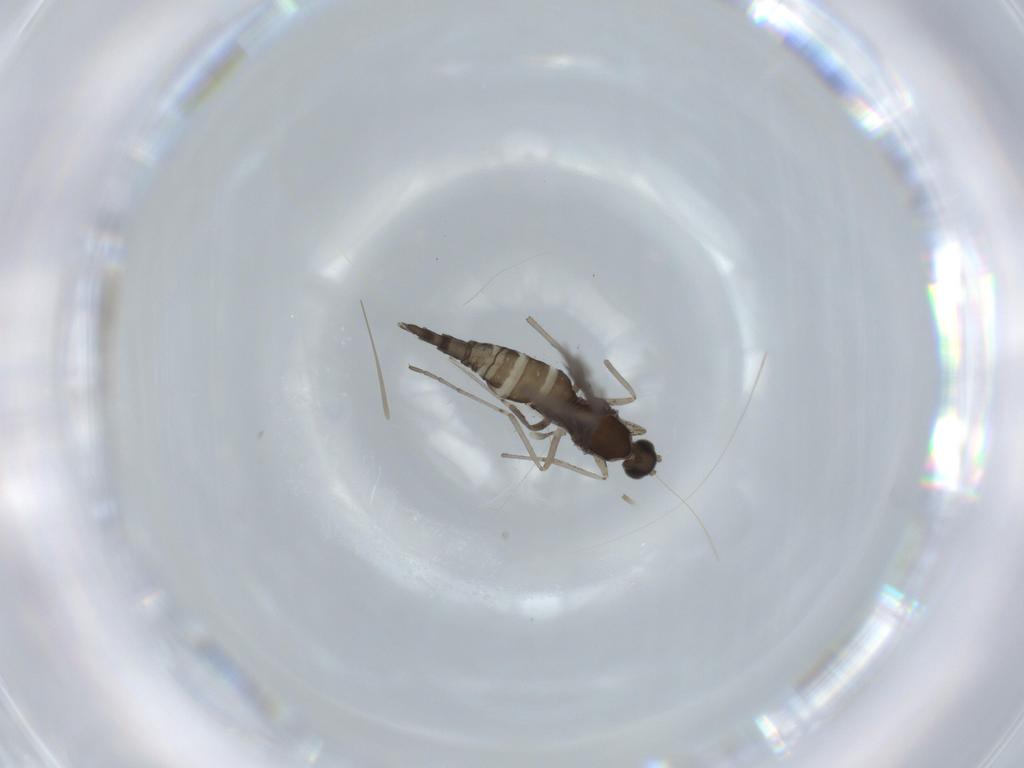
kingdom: Animalia
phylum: Arthropoda
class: Insecta
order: Diptera
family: Cecidomyiidae
